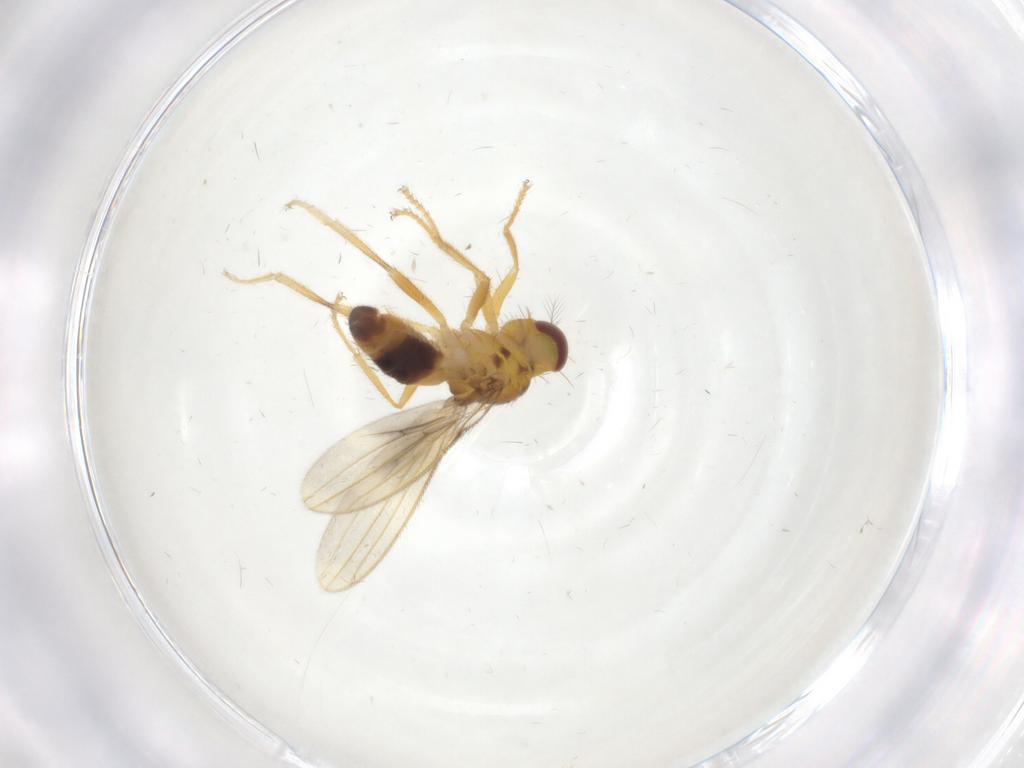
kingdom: Animalia
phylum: Arthropoda
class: Insecta
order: Diptera
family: Periscelididae
